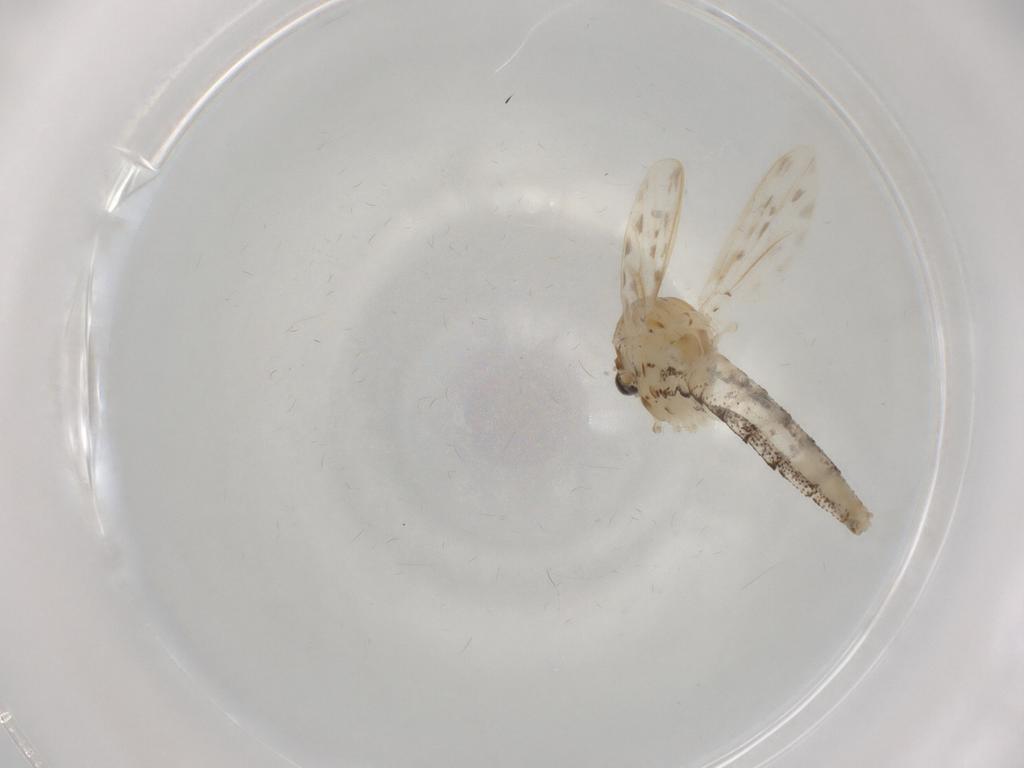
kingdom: Animalia
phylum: Arthropoda
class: Insecta
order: Diptera
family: Chaoboridae
